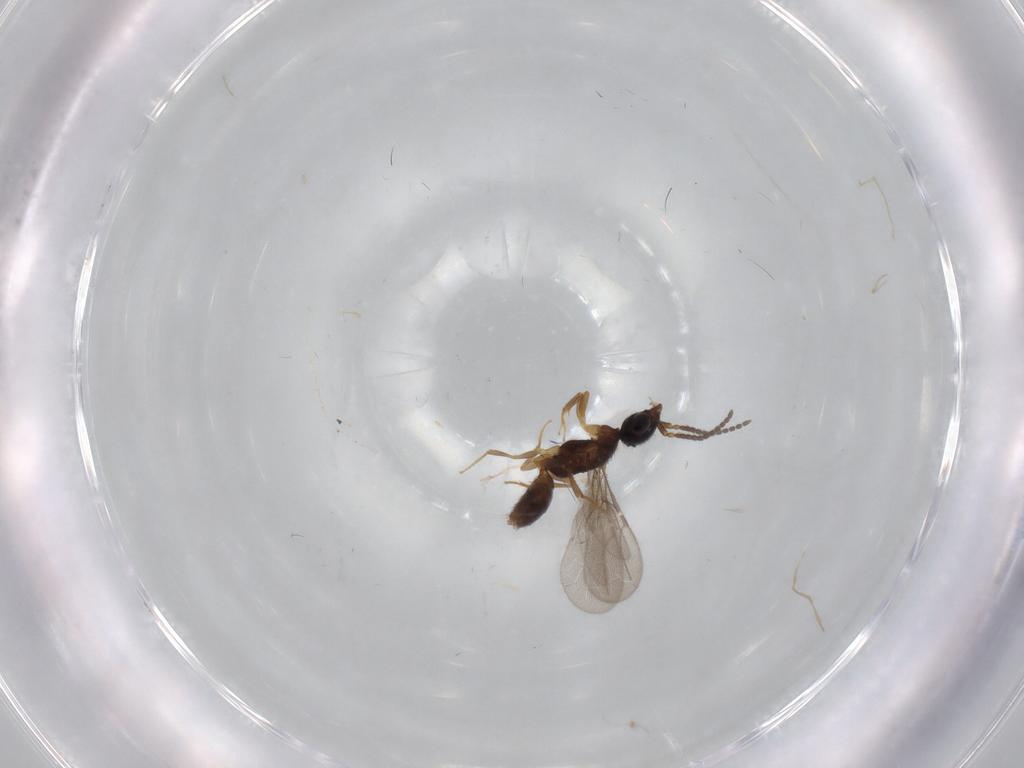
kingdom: Animalia
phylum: Arthropoda
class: Insecta
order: Hymenoptera
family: Bethylidae
